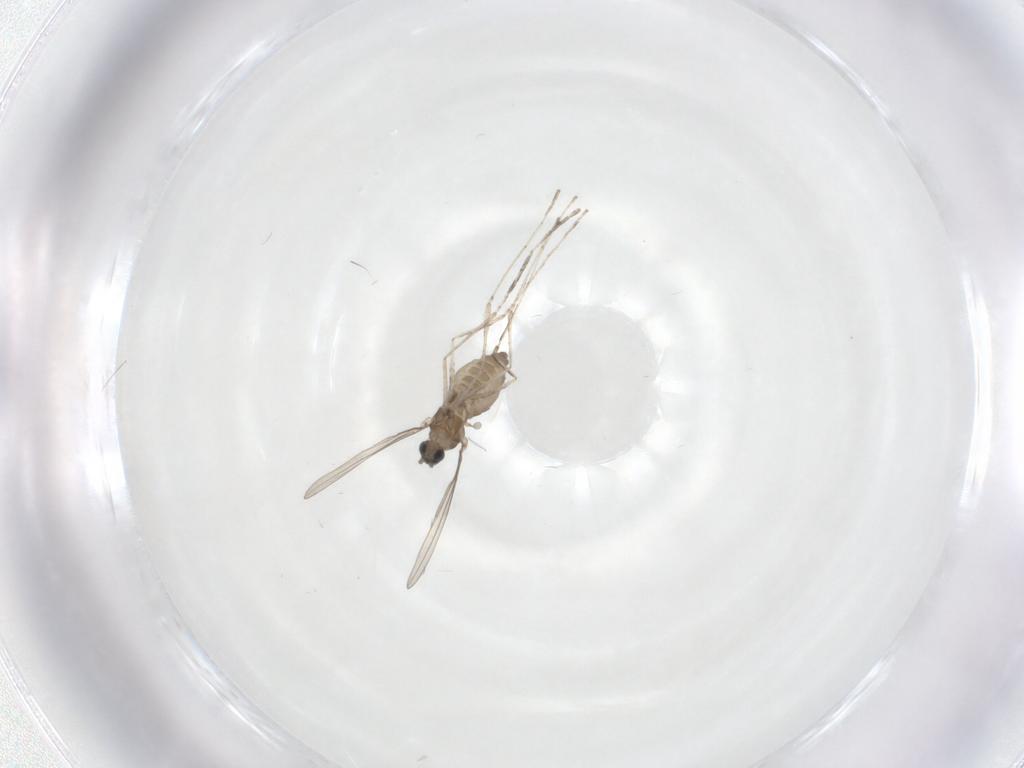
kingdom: Animalia
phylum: Arthropoda
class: Insecta
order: Diptera
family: Cecidomyiidae
